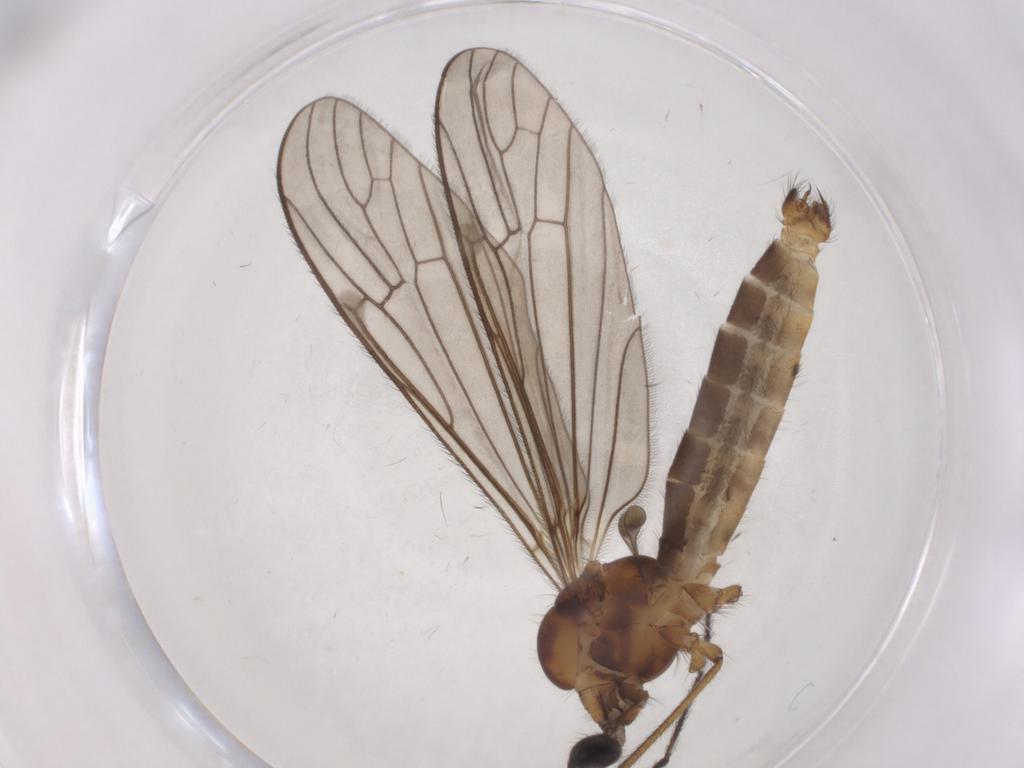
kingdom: Animalia
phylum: Arthropoda
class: Insecta
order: Diptera
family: Limoniidae
